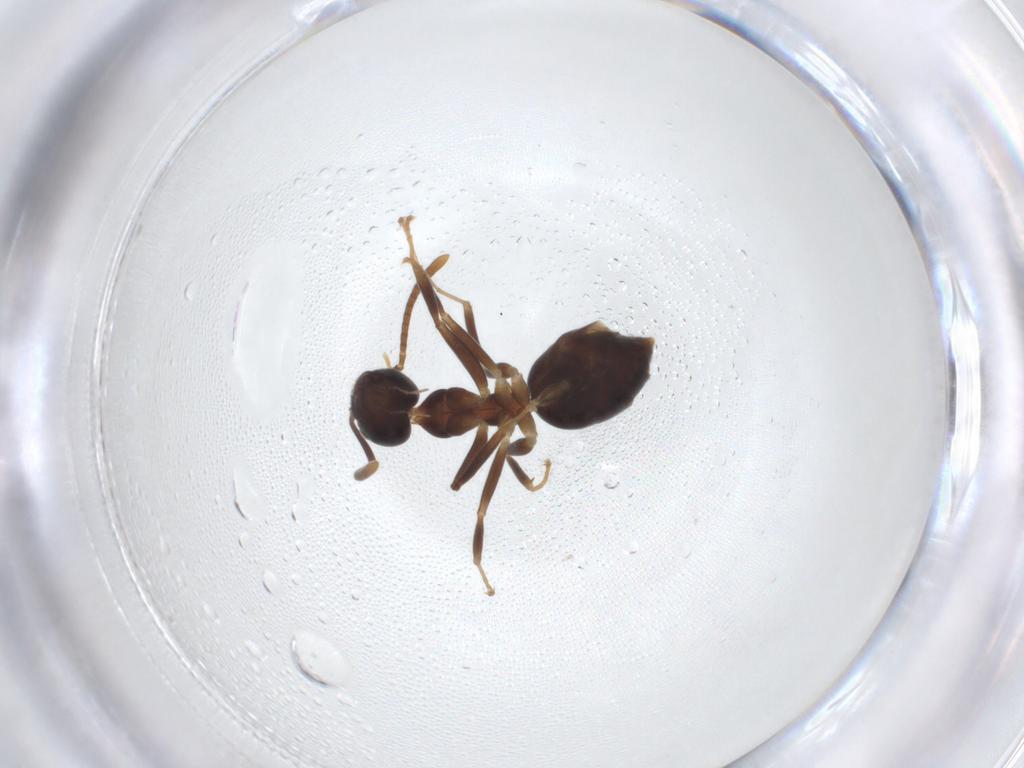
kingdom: Animalia
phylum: Arthropoda
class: Insecta
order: Hymenoptera
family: Formicidae
